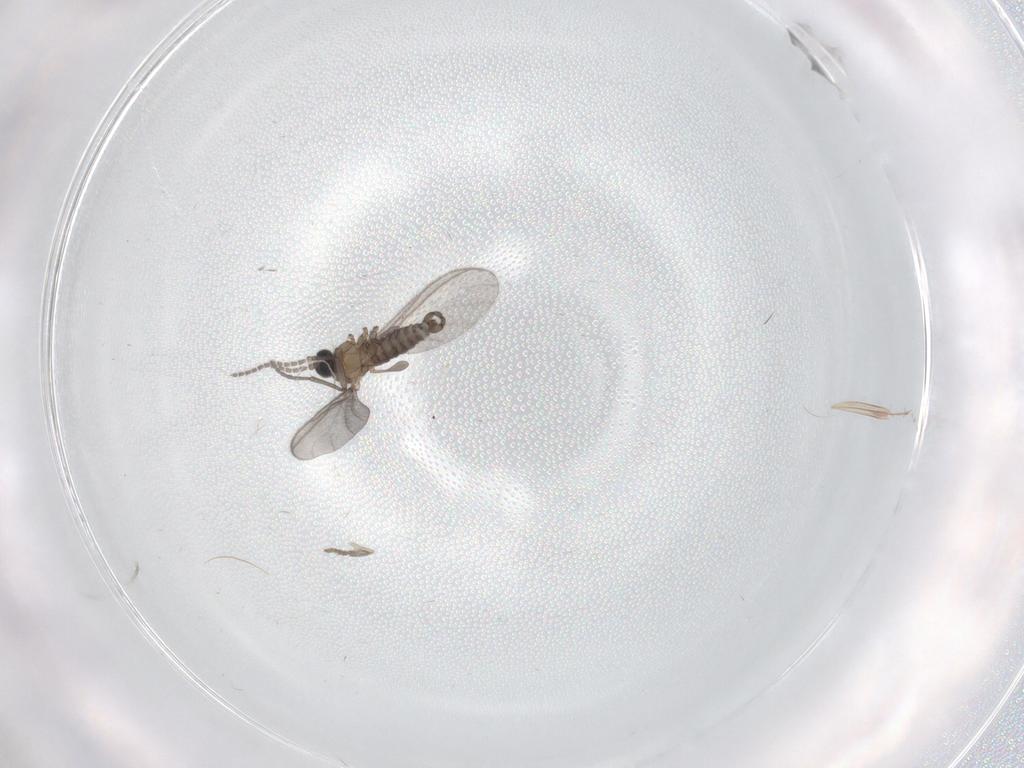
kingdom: Animalia
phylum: Arthropoda
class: Insecta
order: Diptera
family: Sciaridae
